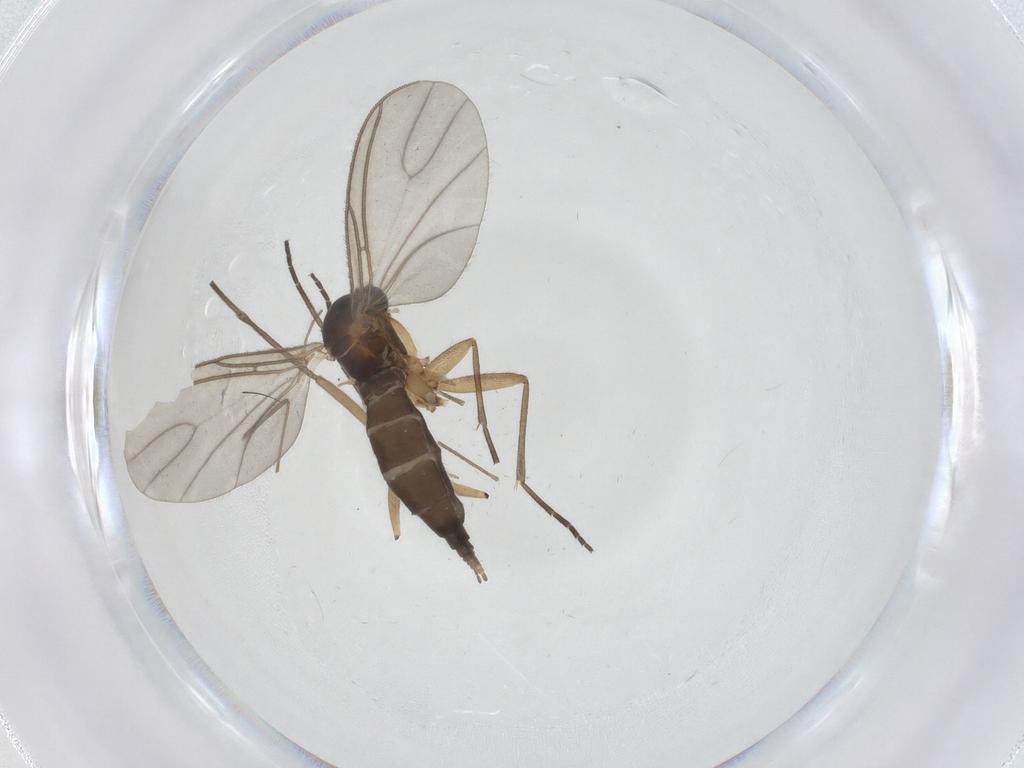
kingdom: Animalia
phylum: Arthropoda
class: Insecta
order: Diptera
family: Sciaridae
